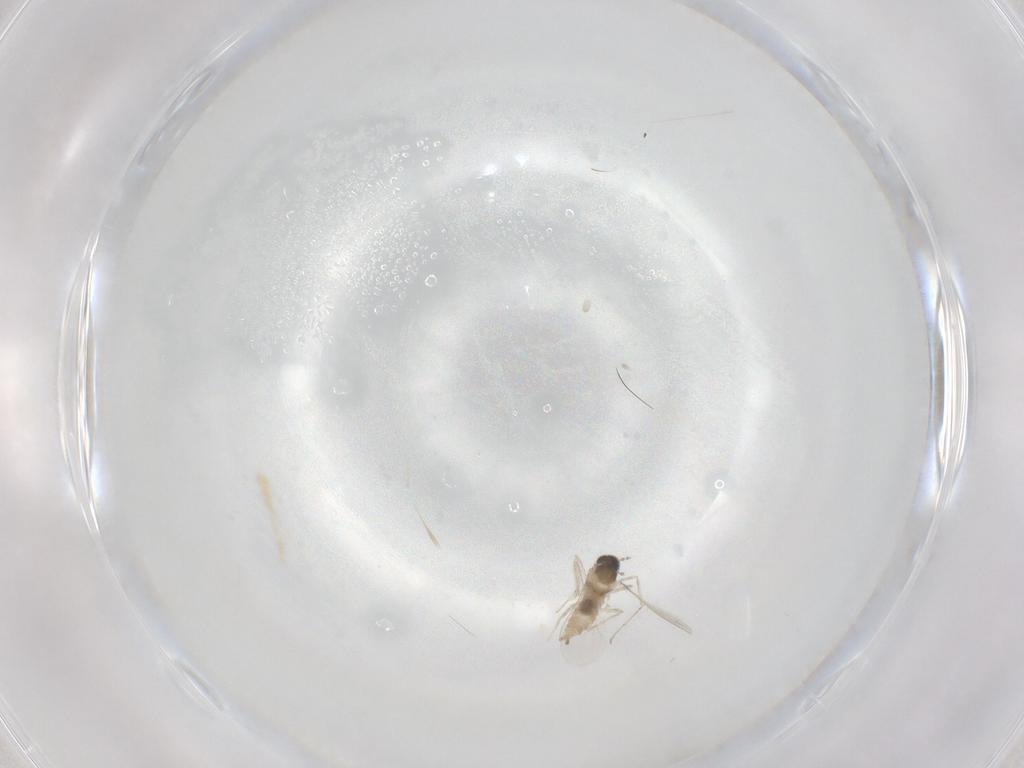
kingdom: Animalia
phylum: Arthropoda
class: Insecta
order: Diptera
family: Cecidomyiidae
